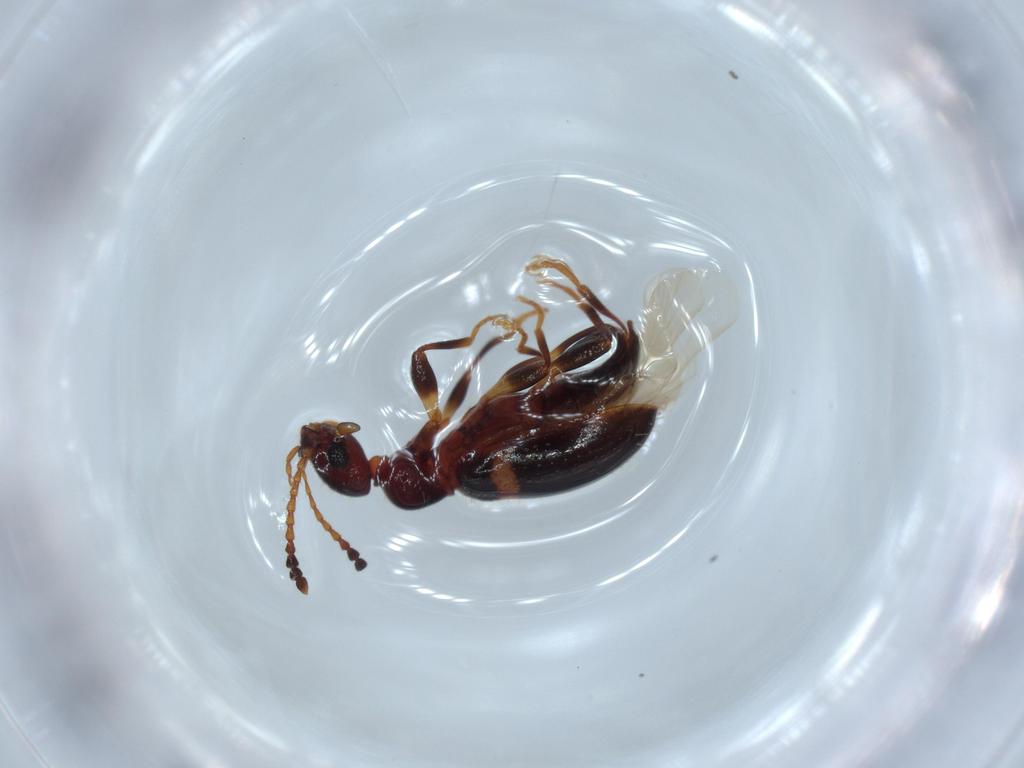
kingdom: Animalia
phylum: Arthropoda
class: Insecta
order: Coleoptera
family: Anthicidae
